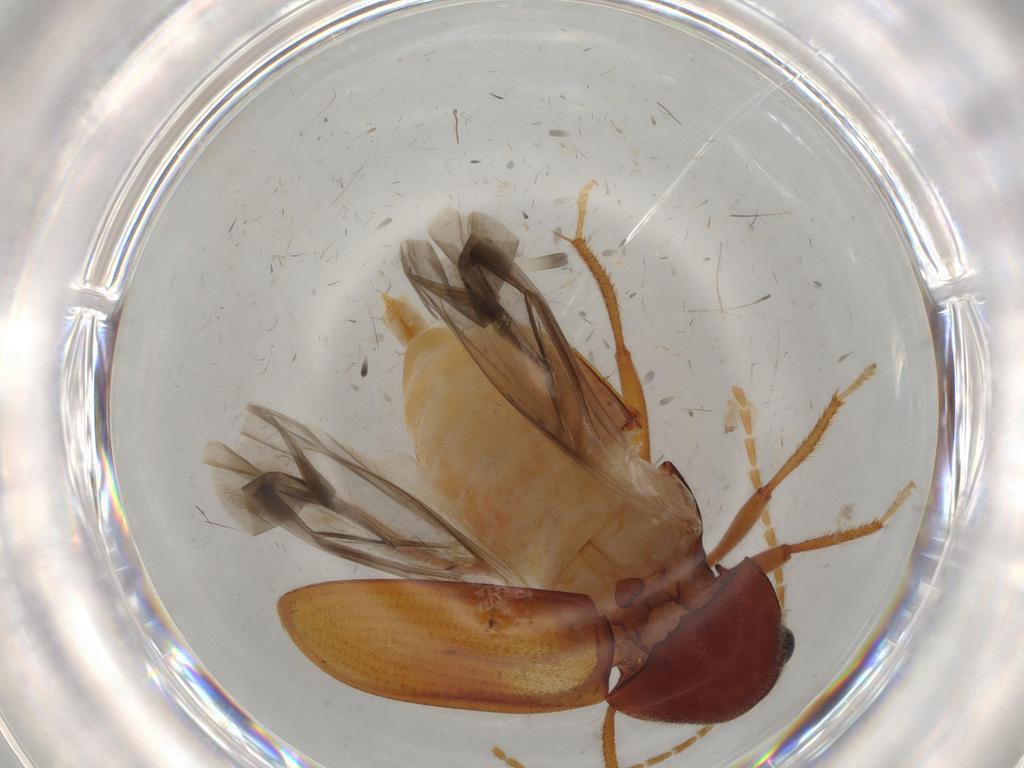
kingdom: Animalia
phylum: Arthropoda
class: Insecta
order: Coleoptera
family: Ptilodactylidae
